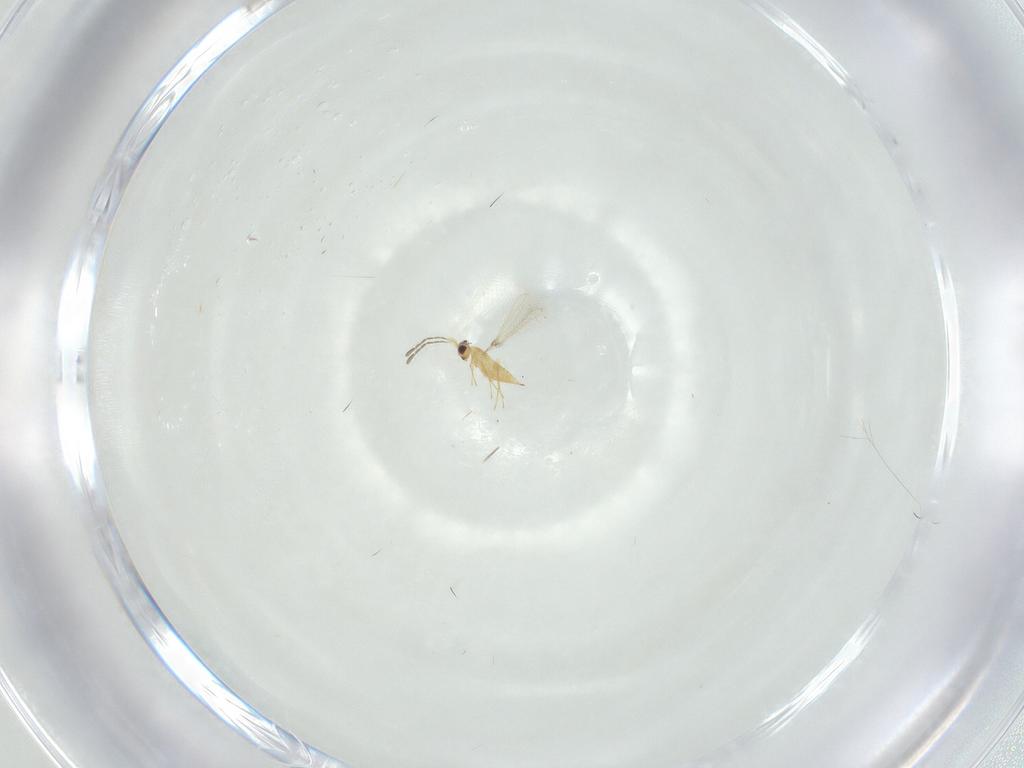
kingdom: Animalia
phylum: Arthropoda
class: Insecta
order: Hymenoptera
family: Mymaridae
